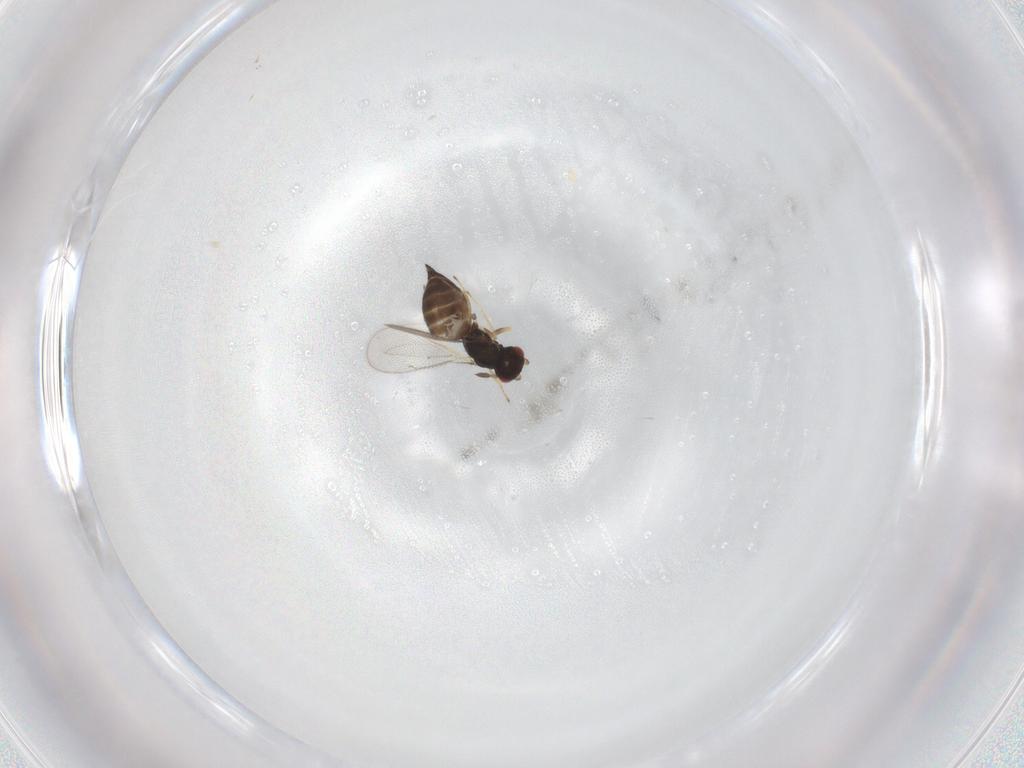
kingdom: Animalia
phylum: Arthropoda
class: Insecta
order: Hymenoptera
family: Eulophidae
